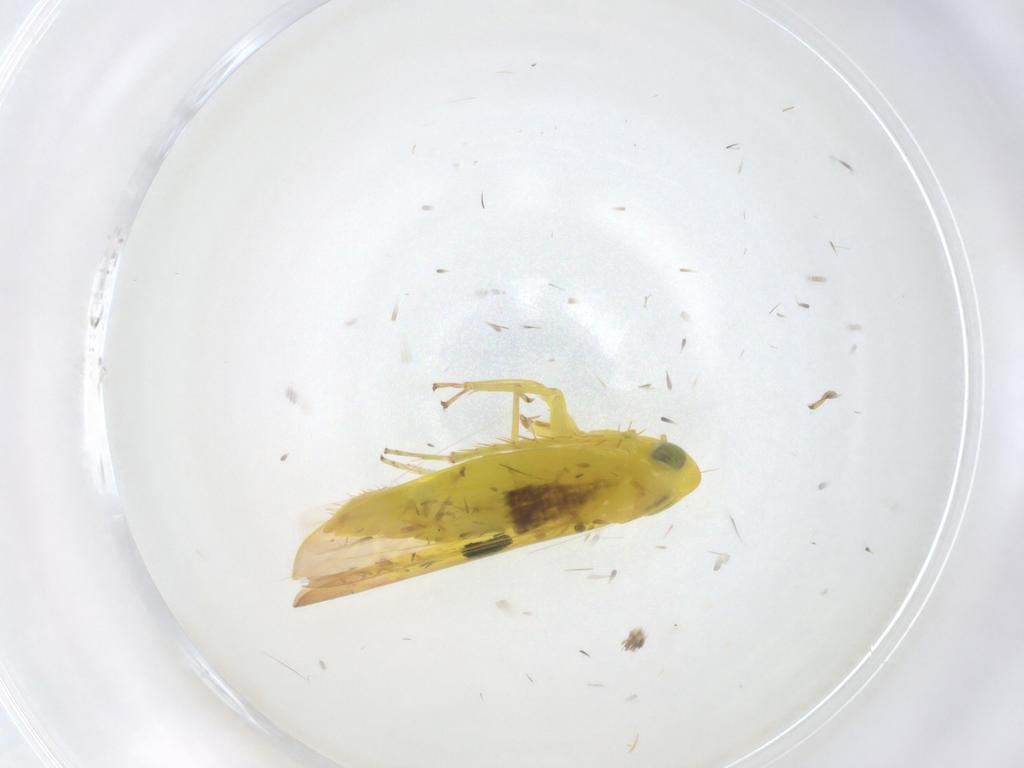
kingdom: Animalia
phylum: Arthropoda
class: Insecta
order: Hemiptera
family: Cicadellidae
